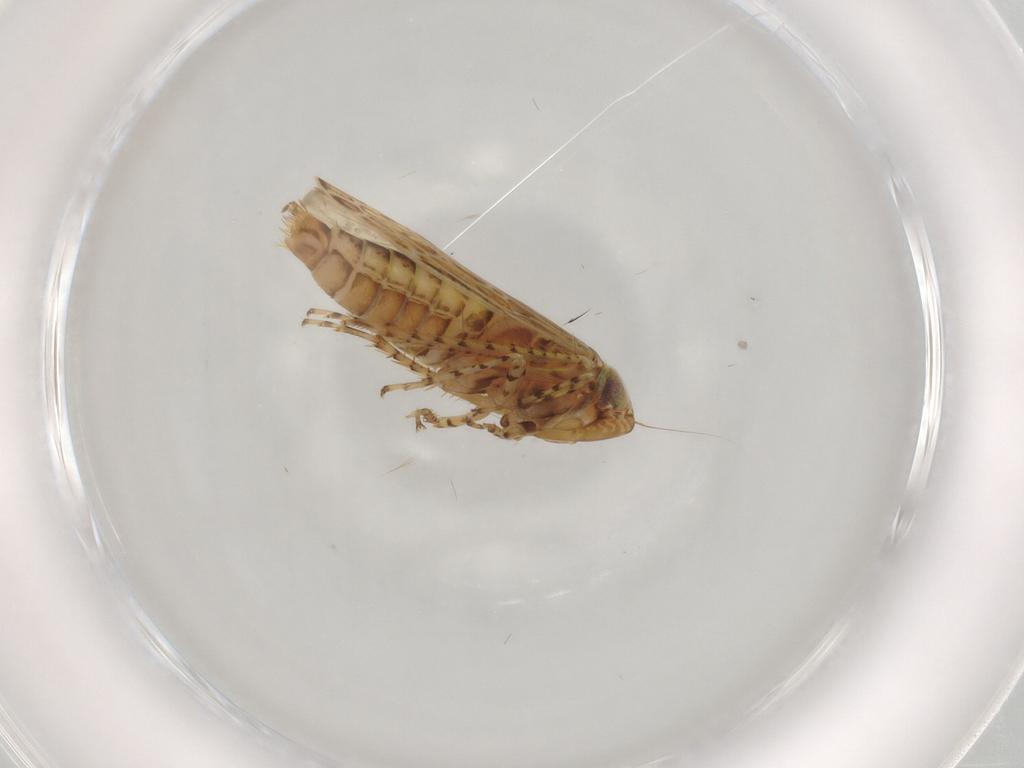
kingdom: Animalia
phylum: Arthropoda
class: Insecta
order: Hemiptera
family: Cicadellidae
